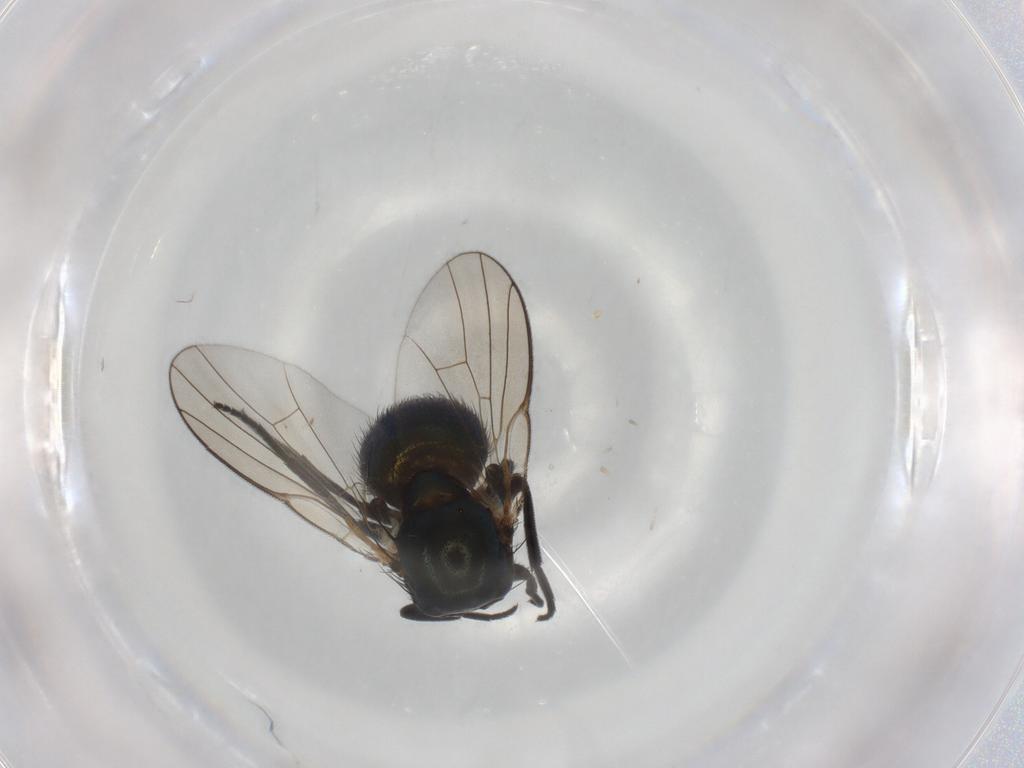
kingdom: Animalia
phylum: Arthropoda
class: Insecta
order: Diptera
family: Agromyzidae
